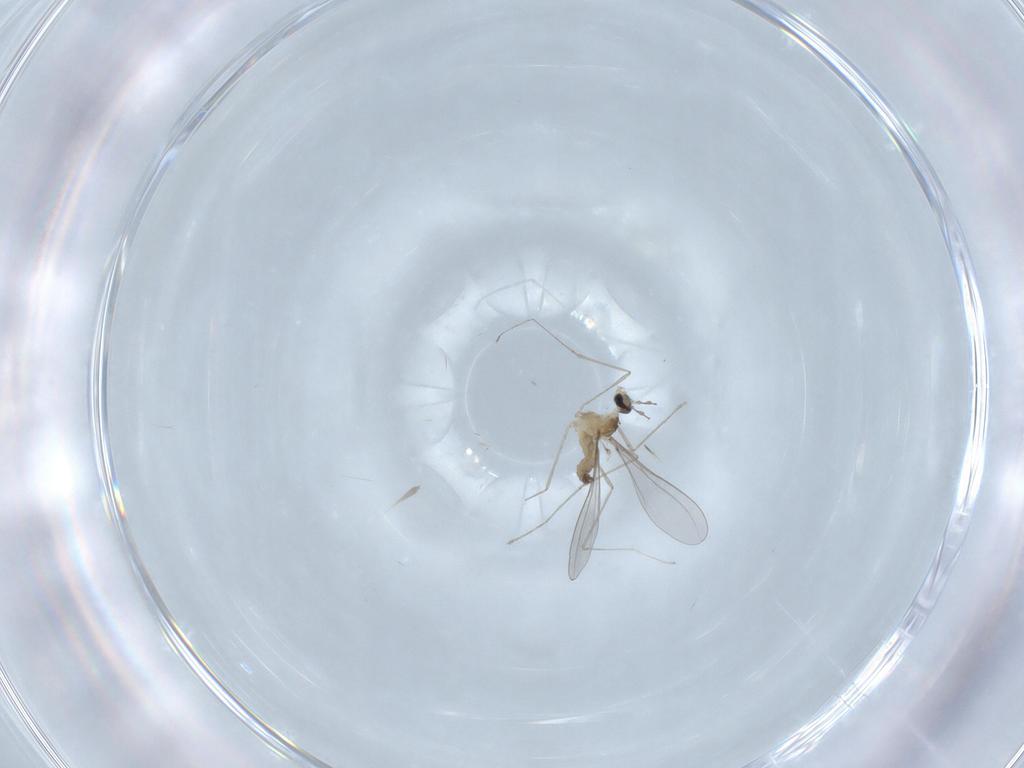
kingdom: Animalia
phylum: Arthropoda
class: Insecta
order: Diptera
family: Cecidomyiidae
